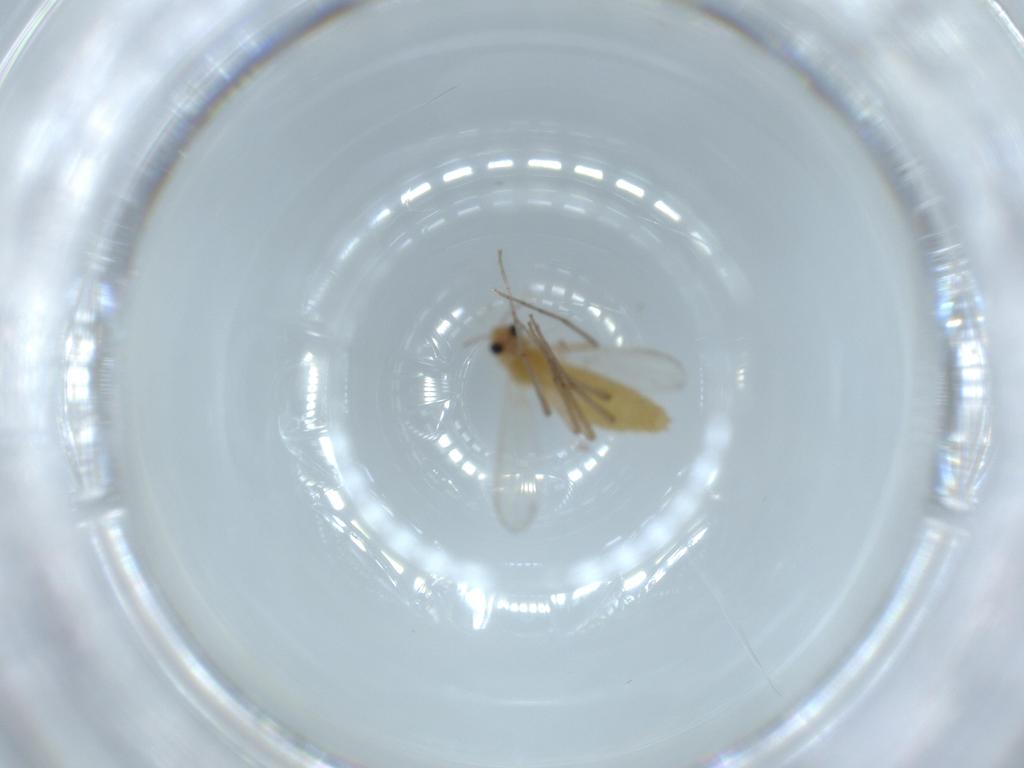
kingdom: Animalia
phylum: Arthropoda
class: Insecta
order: Diptera
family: Chironomidae
